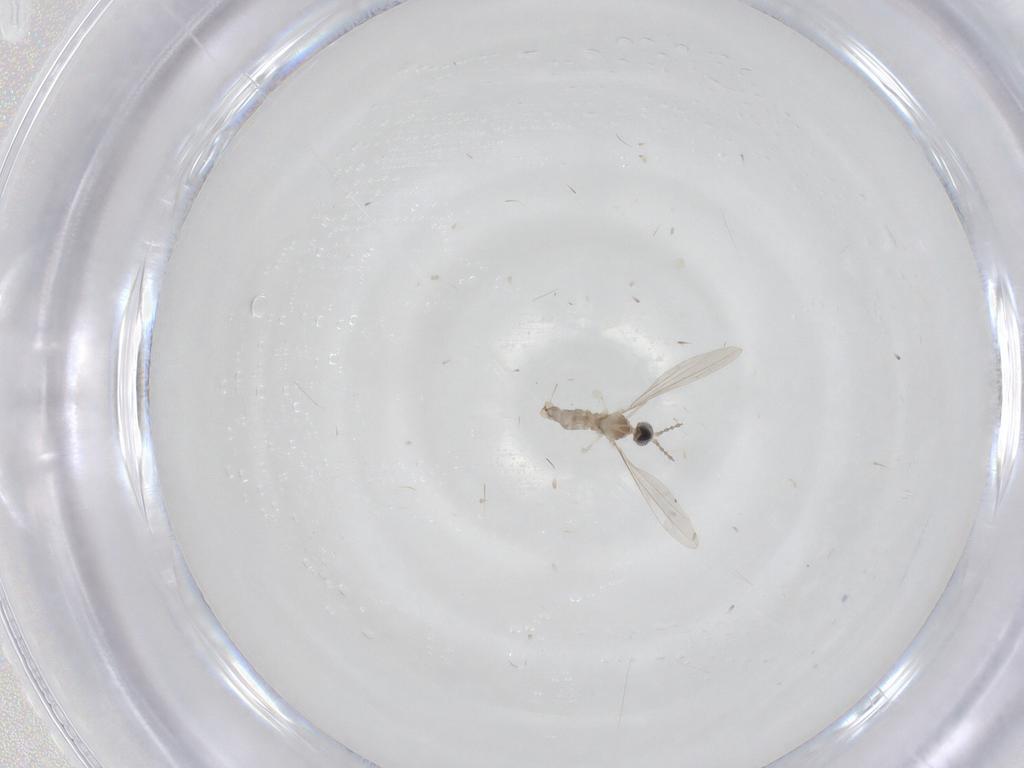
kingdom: Animalia
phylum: Arthropoda
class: Insecta
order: Diptera
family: Chironomidae
